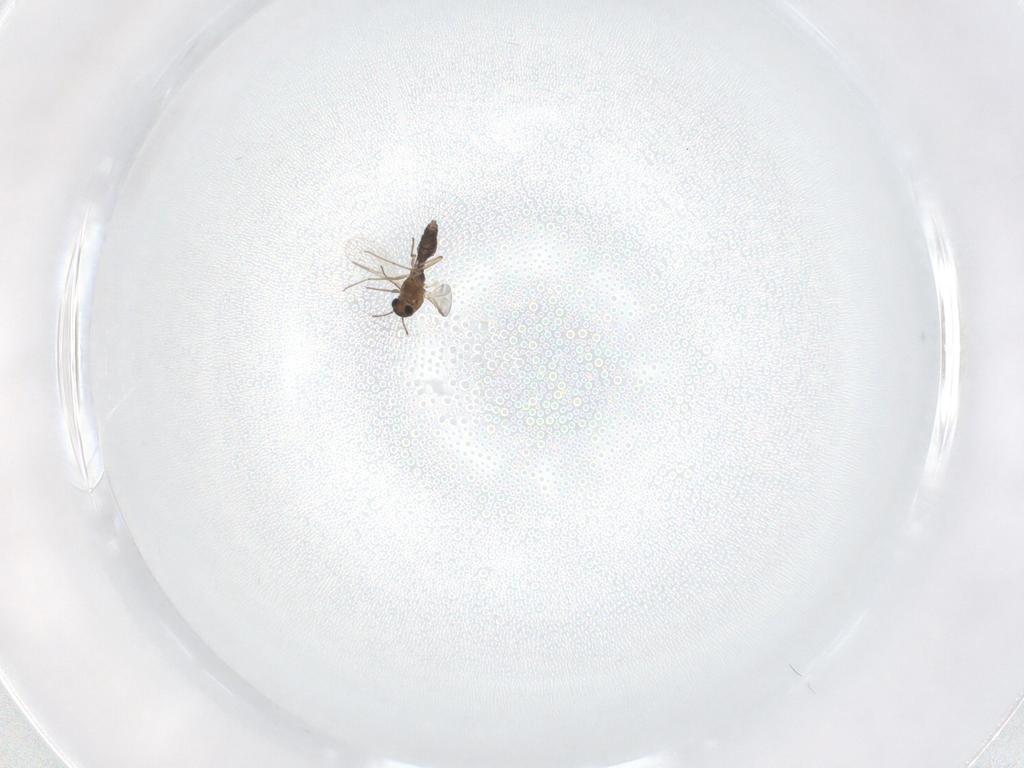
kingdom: Animalia
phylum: Arthropoda
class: Insecta
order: Diptera
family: Chironomidae
